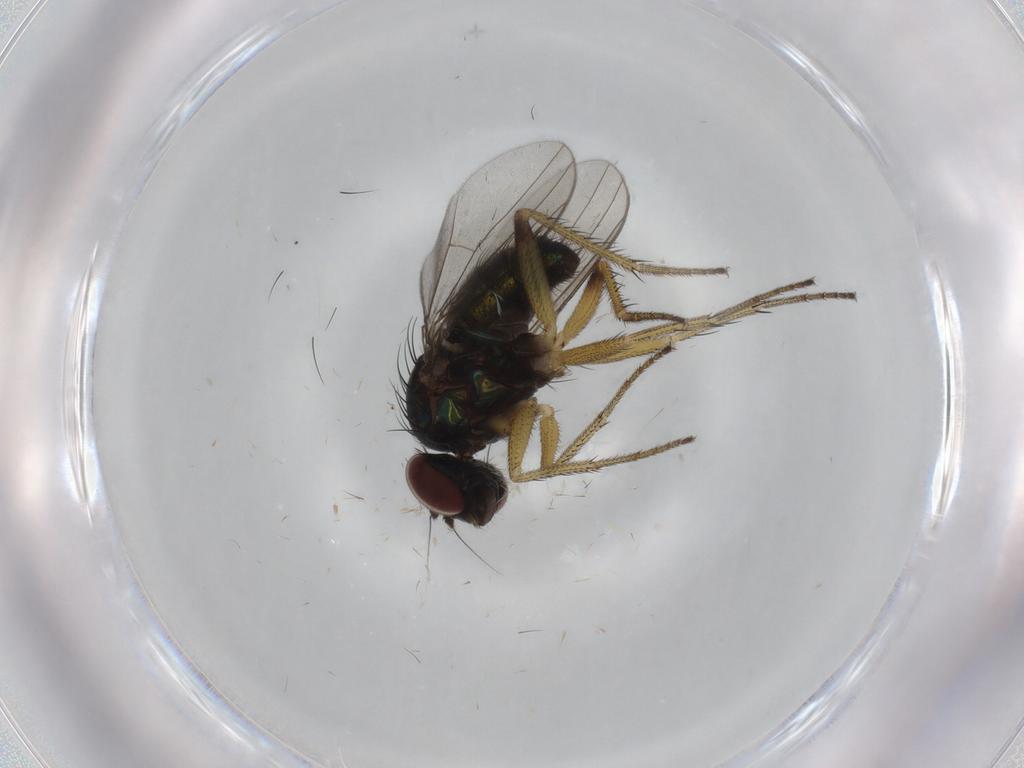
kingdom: Animalia
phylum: Arthropoda
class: Insecta
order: Diptera
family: Dolichopodidae
